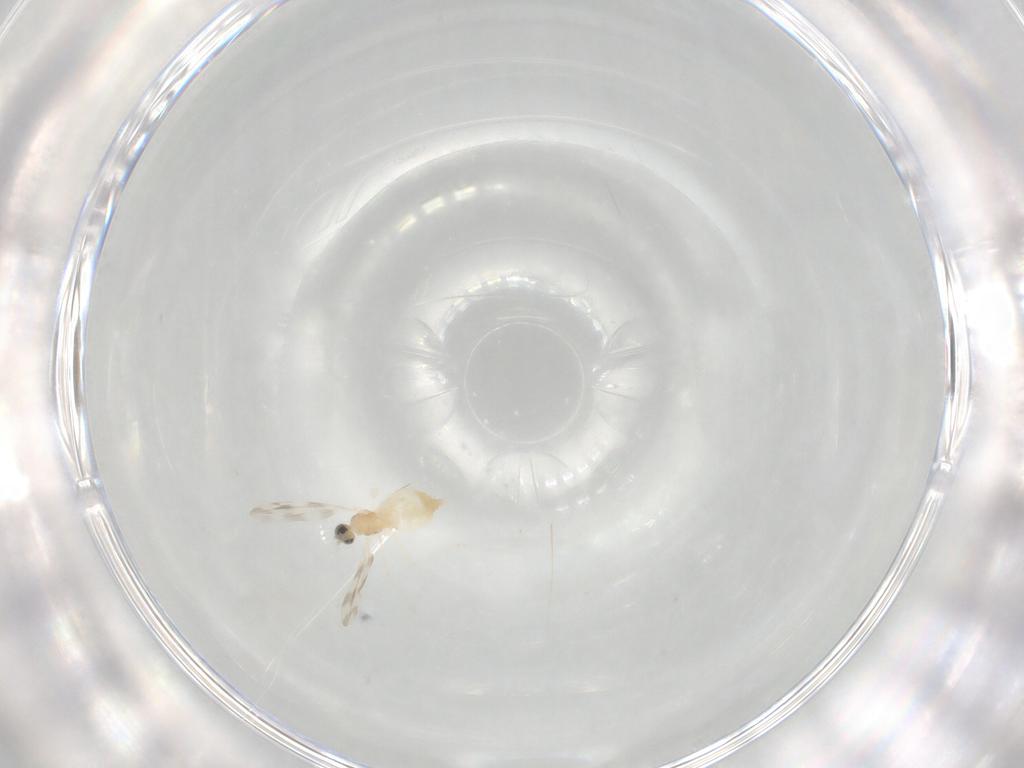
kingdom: Animalia
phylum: Arthropoda
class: Insecta
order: Diptera
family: Cecidomyiidae
